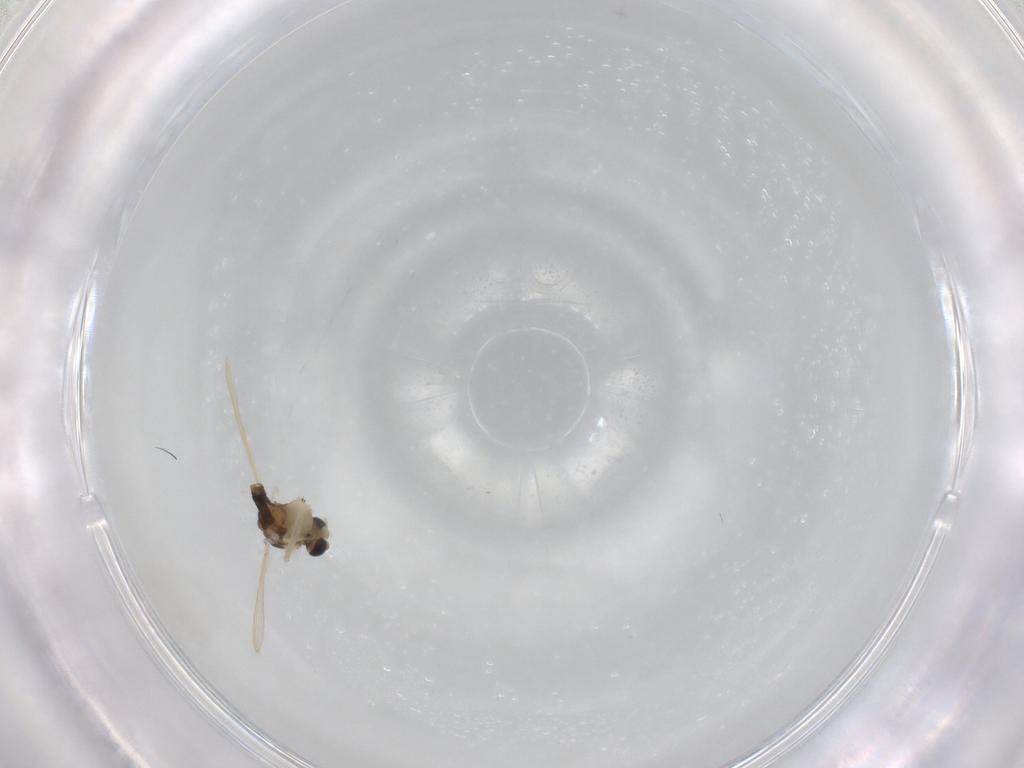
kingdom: Animalia
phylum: Arthropoda
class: Insecta
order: Diptera
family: Chironomidae
